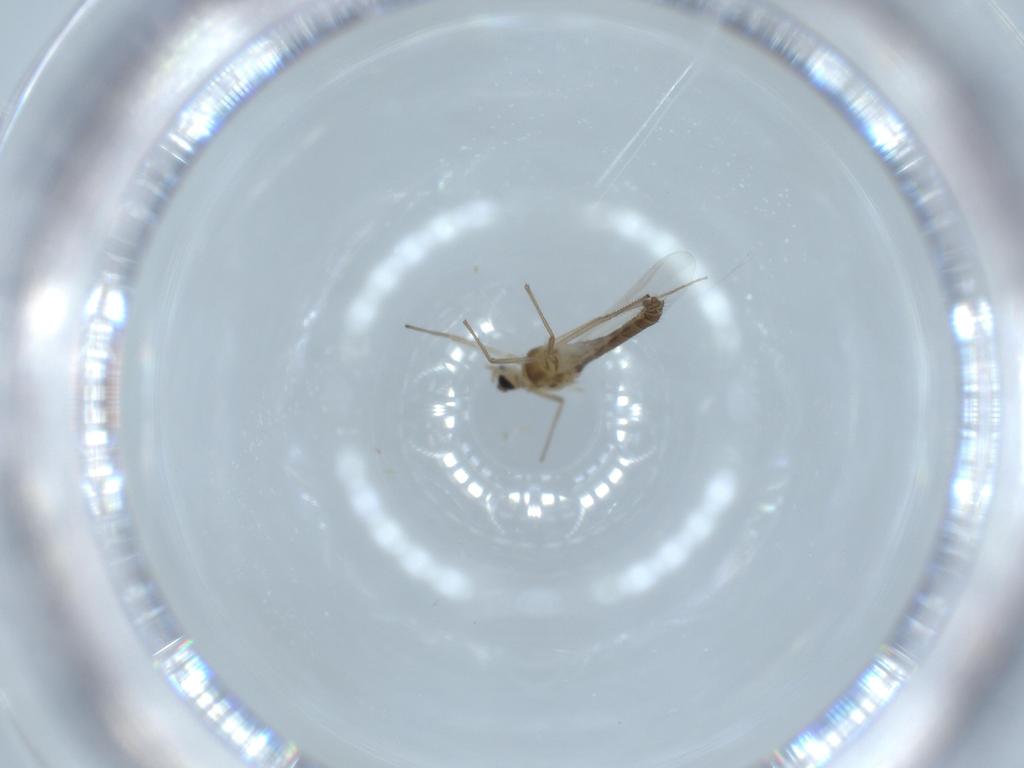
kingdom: Animalia
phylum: Arthropoda
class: Insecta
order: Diptera
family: Chironomidae
